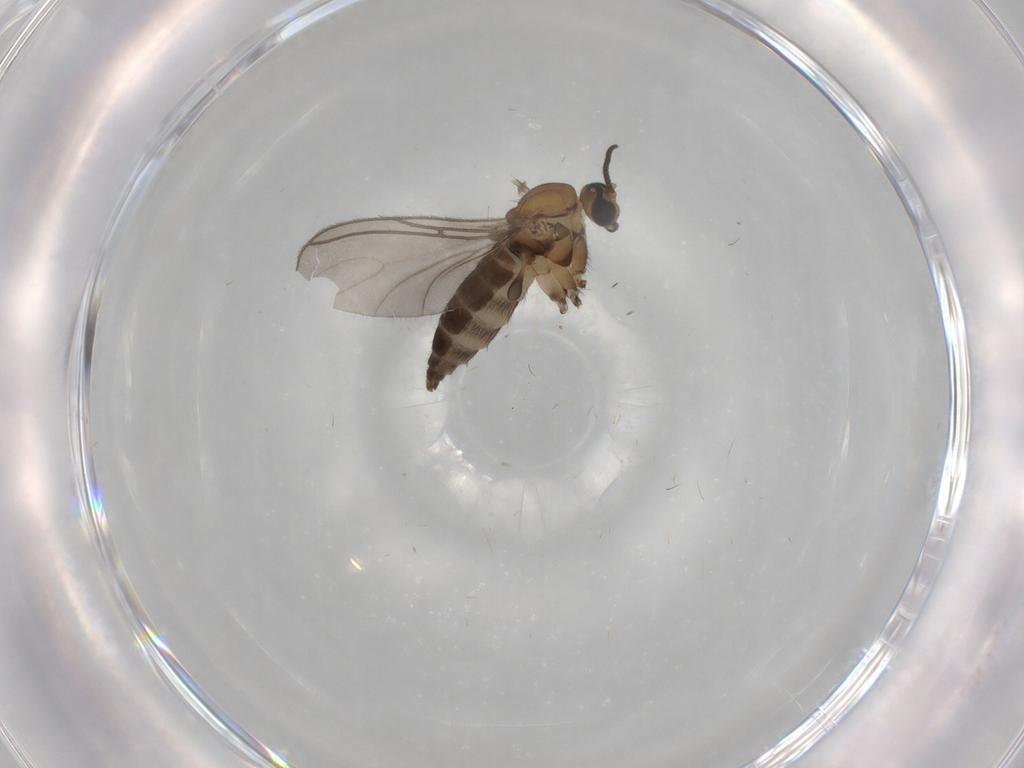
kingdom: Animalia
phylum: Arthropoda
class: Insecta
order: Diptera
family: Sciaridae
